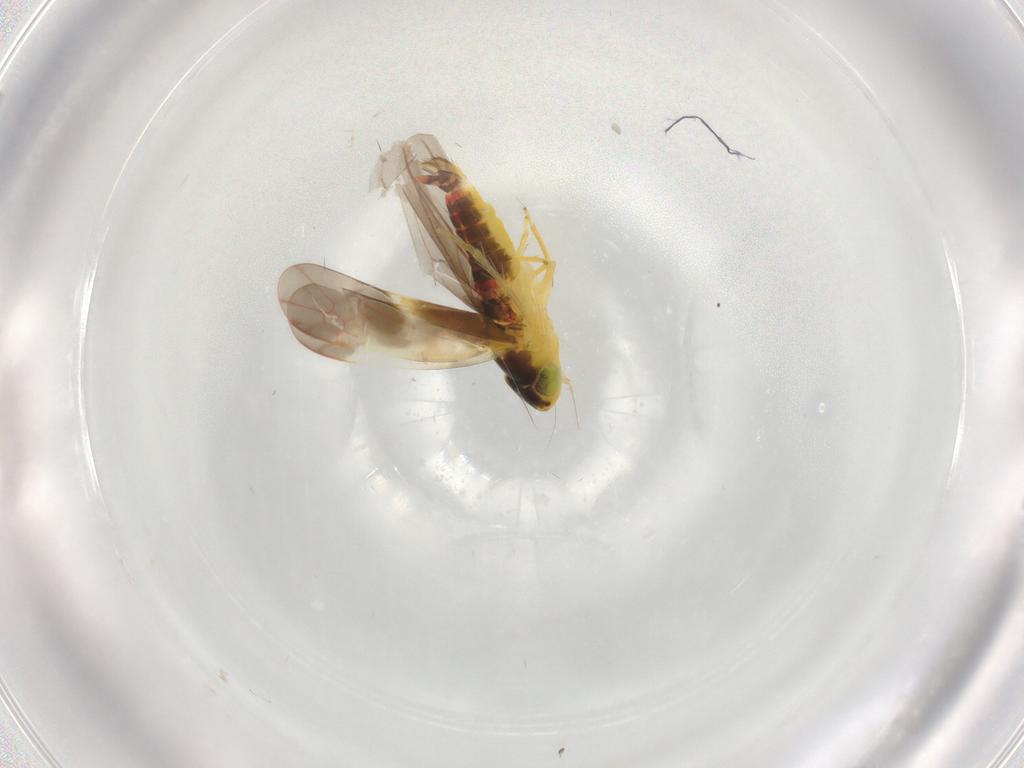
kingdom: Animalia
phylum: Arthropoda
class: Insecta
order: Hemiptera
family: Cicadellidae
